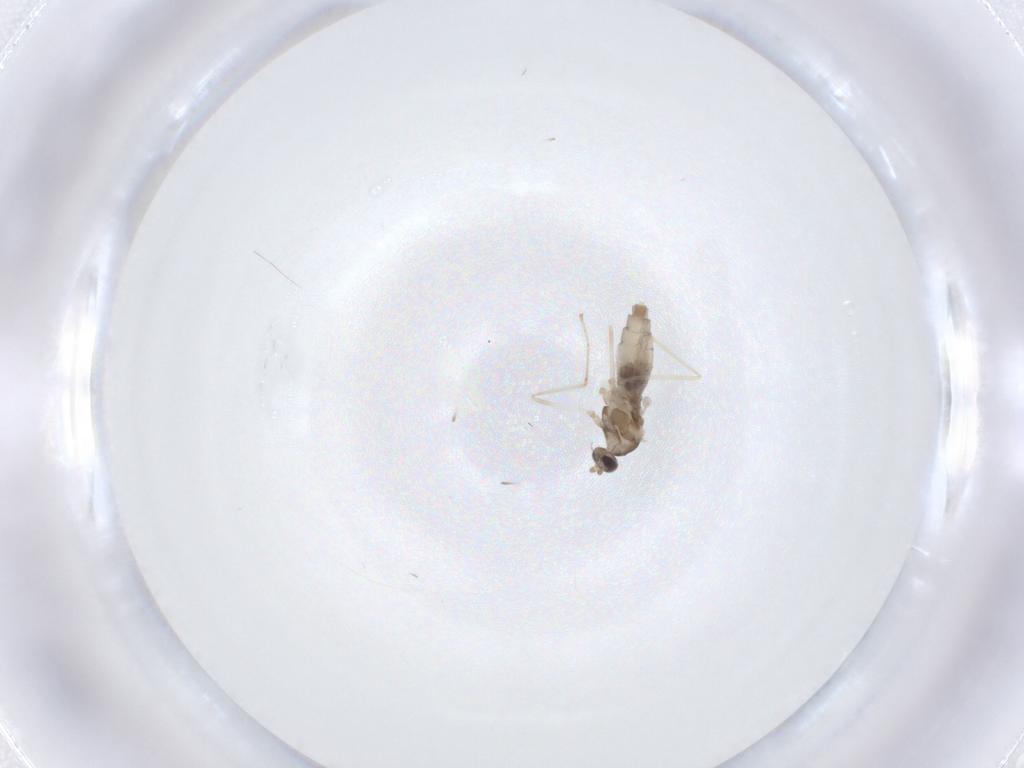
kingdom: Animalia
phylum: Arthropoda
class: Insecta
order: Diptera
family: Cecidomyiidae
